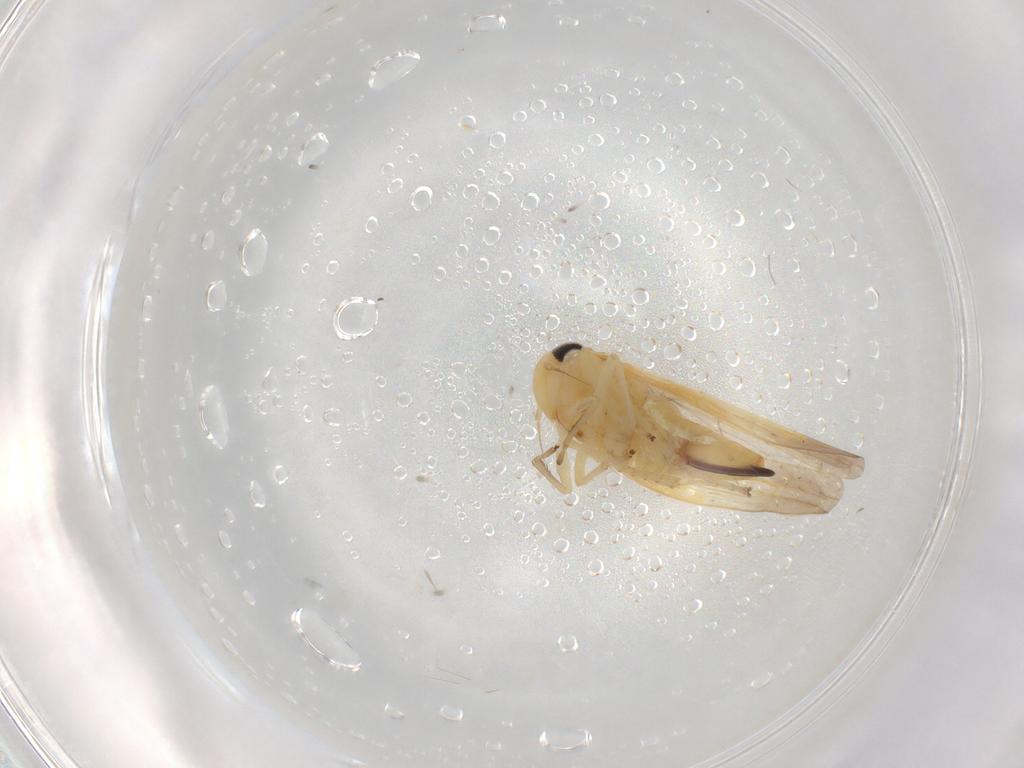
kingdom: Animalia
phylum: Arthropoda
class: Insecta
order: Hemiptera
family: Cicadellidae
